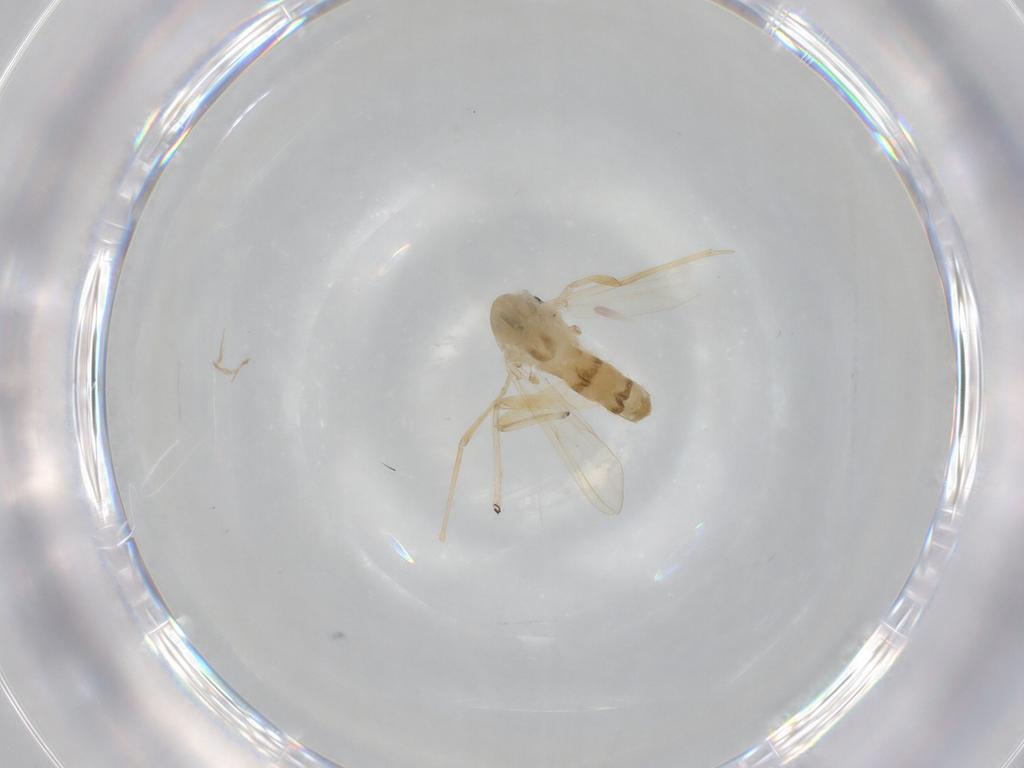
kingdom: Animalia
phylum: Arthropoda
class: Insecta
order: Diptera
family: Chironomidae
